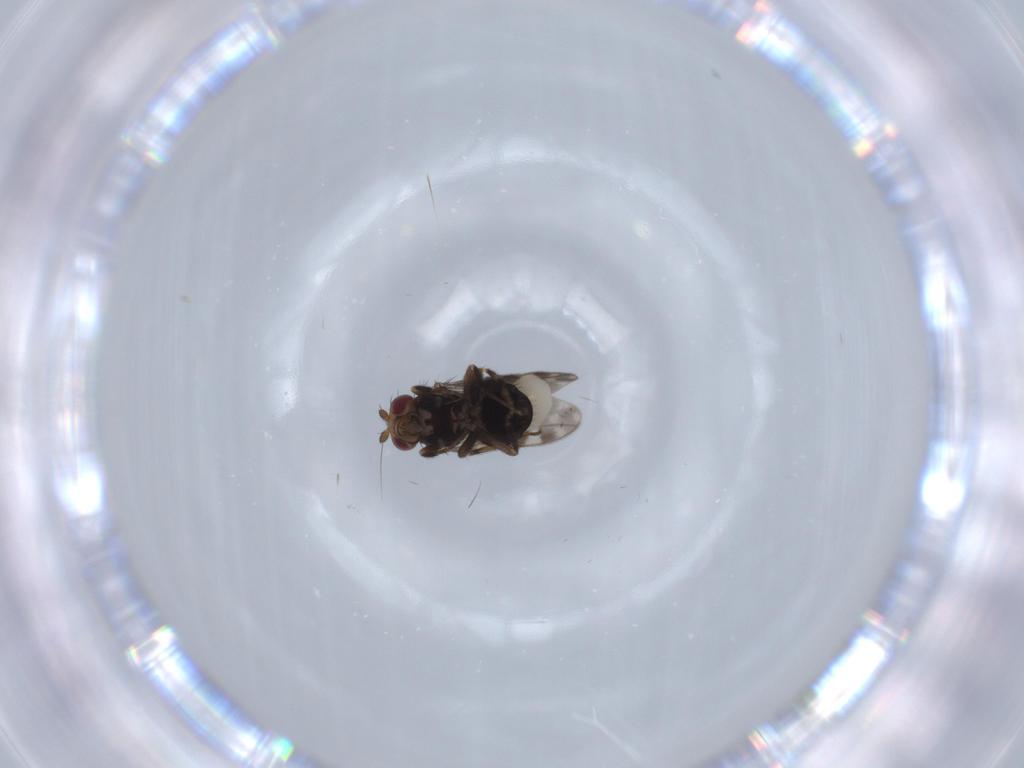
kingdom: Animalia
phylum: Arthropoda
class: Insecta
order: Diptera
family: Sphaeroceridae
